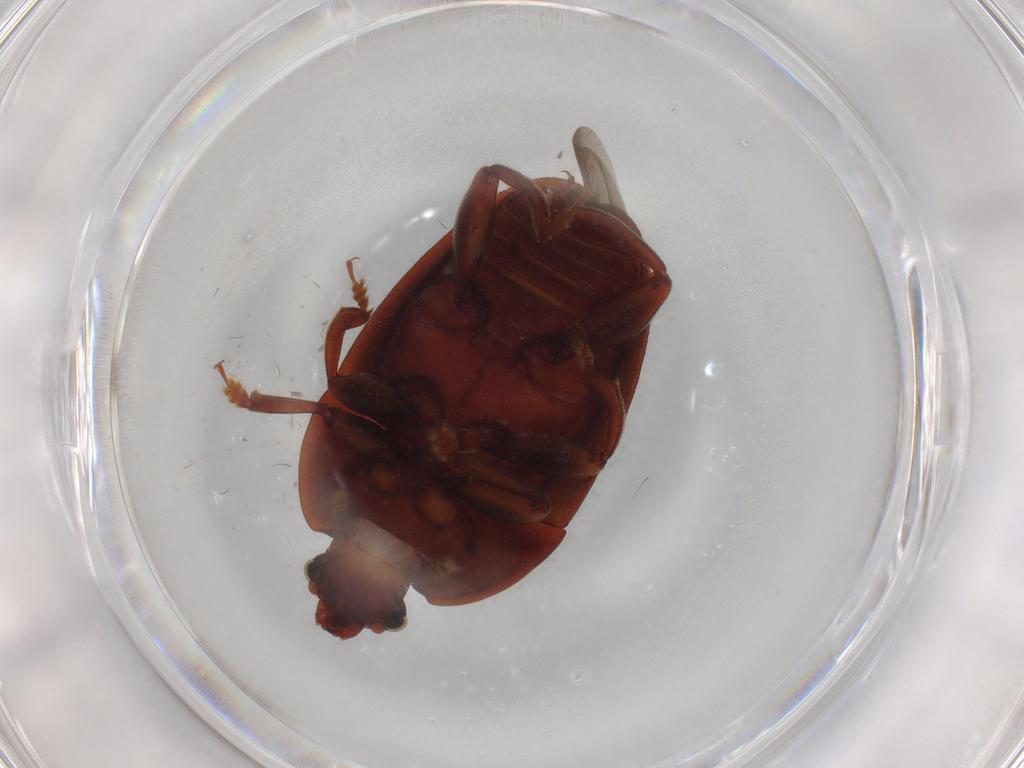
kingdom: Animalia
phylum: Arthropoda
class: Insecta
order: Coleoptera
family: Nitidulidae
